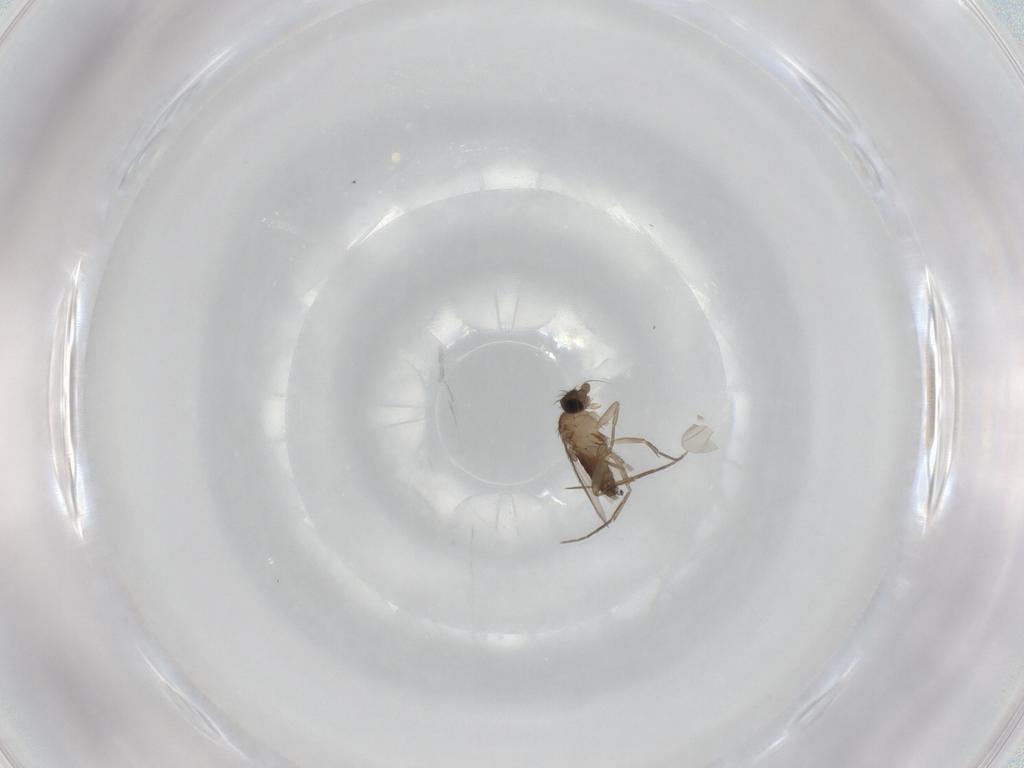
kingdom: Animalia
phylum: Arthropoda
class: Insecta
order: Diptera
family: Phoridae
